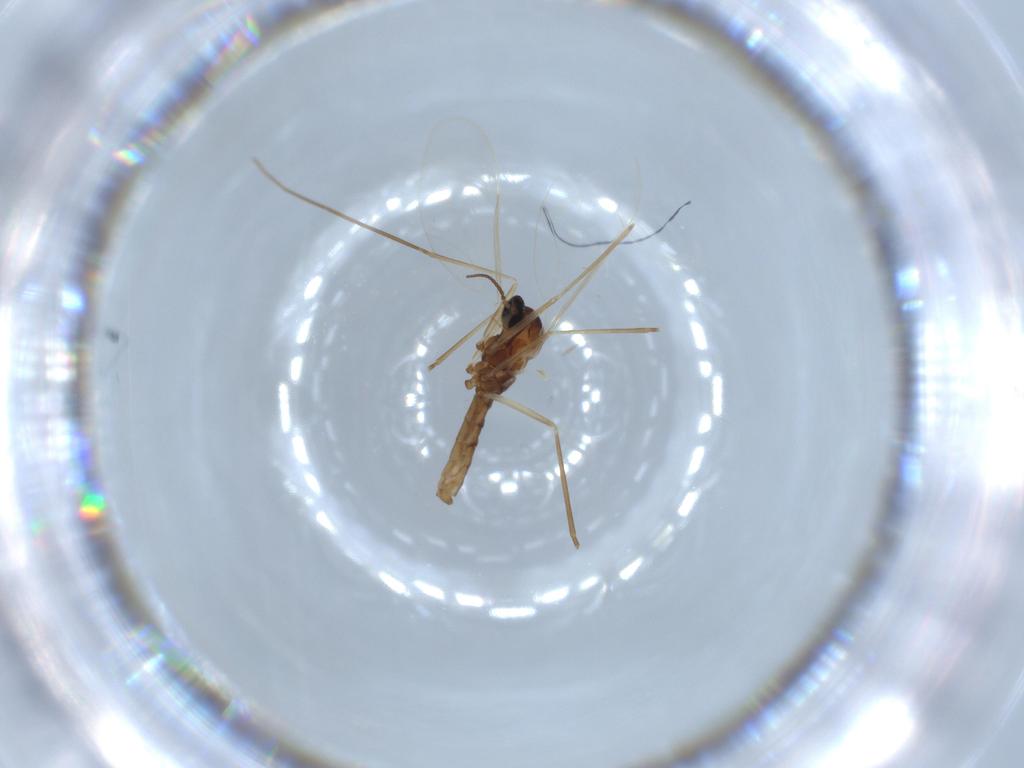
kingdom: Animalia
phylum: Arthropoda
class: Insecta
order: Diptera
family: Cecidomyiidae
